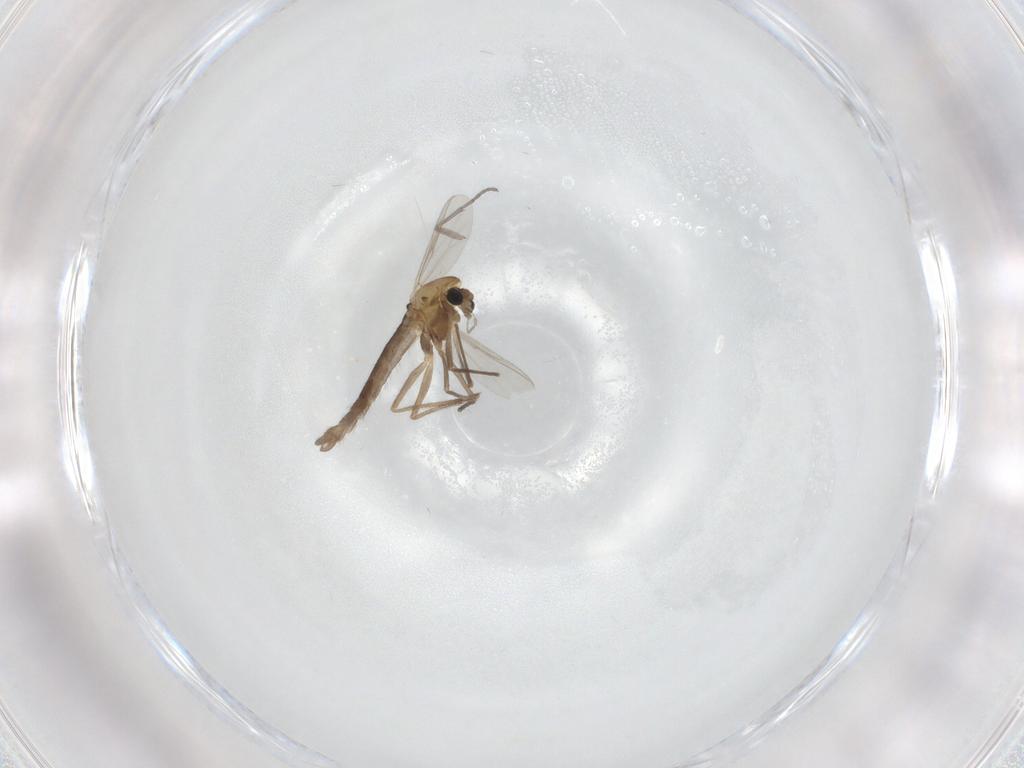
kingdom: Animalia
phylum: Arthropoda
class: Insecta
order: Diptera
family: Chironomidae
